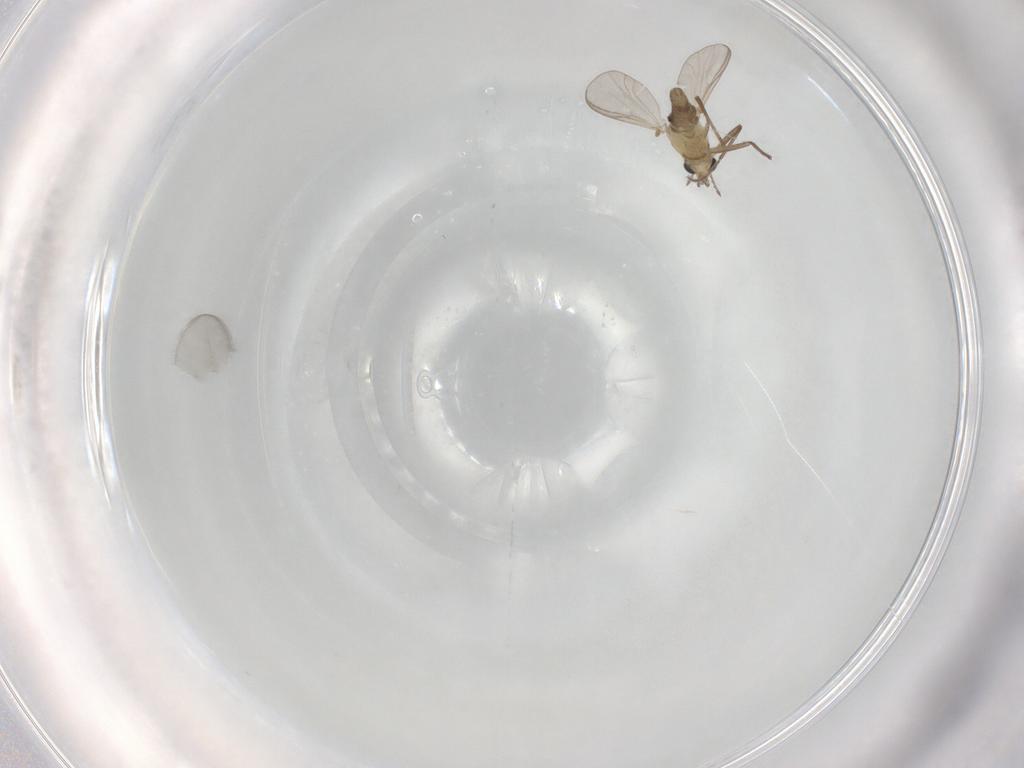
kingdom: Animalia
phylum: Arthropoda
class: Insecta
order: Diptera
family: Chironomidae
